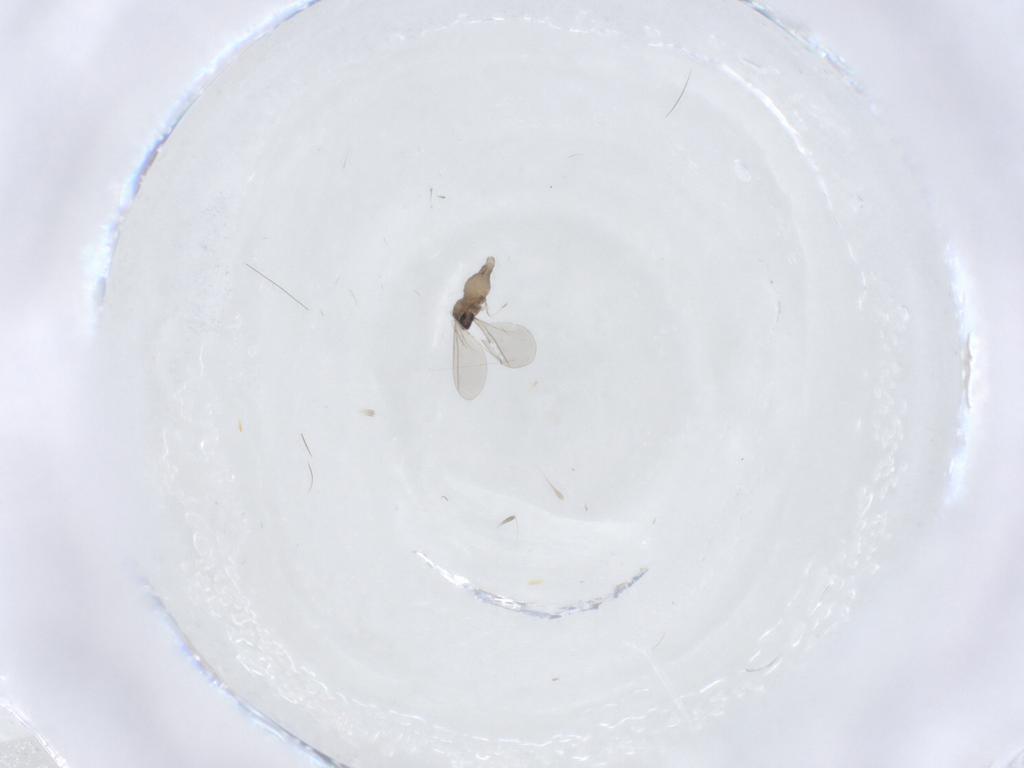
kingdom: Animalia
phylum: Arthropoda
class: Insecta
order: Diptera
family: Cecidomyiidae
